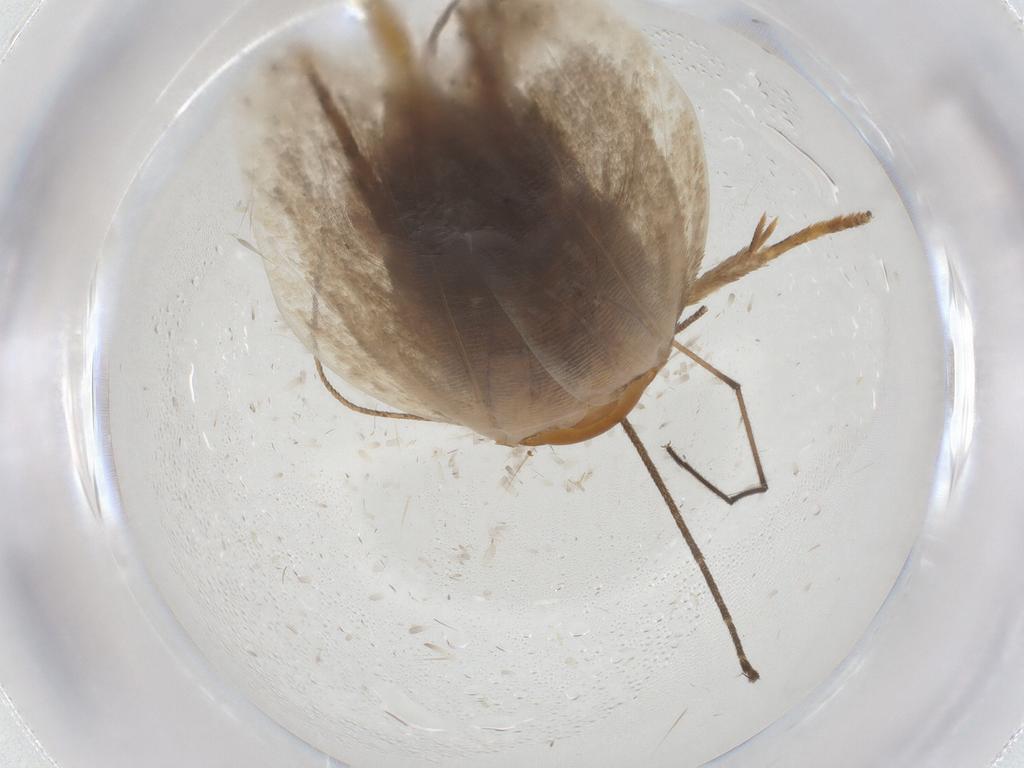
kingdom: Animalia
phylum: Arthropoda
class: Insecta
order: Lepidoptera
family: Oecophoridae
